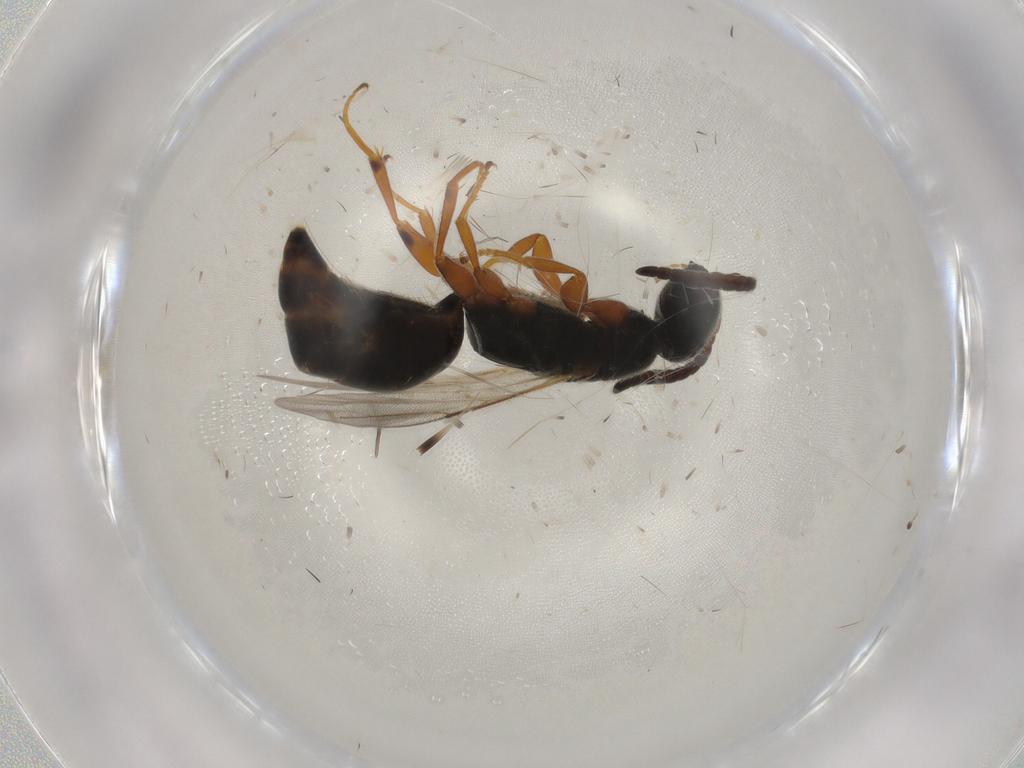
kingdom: Animalia
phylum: Arthropoda
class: Insecta
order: Hymenoptera
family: Bethylidae
